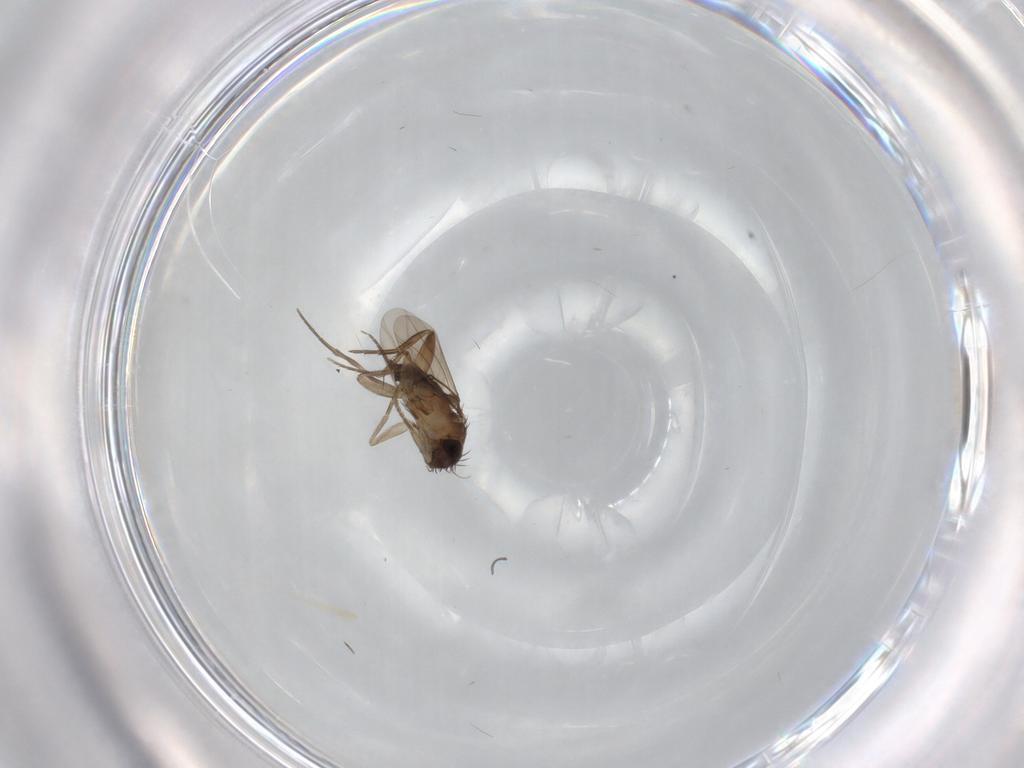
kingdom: Animalia
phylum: Arthropoda
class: Insecta
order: Diptera
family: Phoridae
